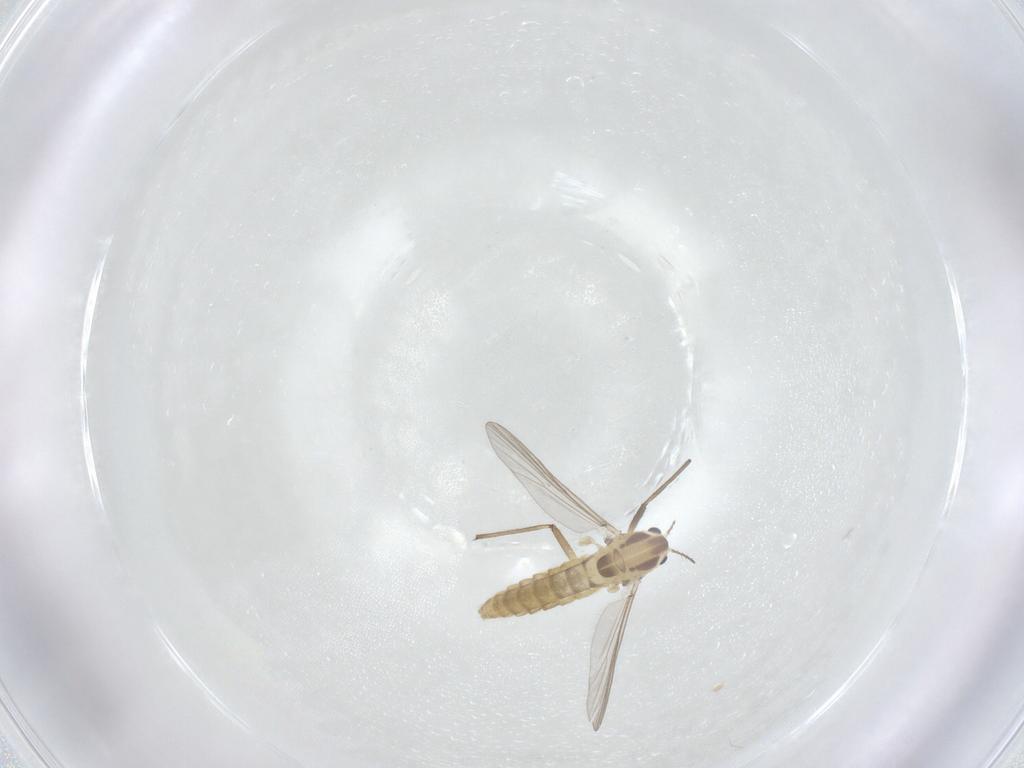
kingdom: Animalia
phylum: Arthropoda
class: Insecta
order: Diptera
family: Chironomidae
